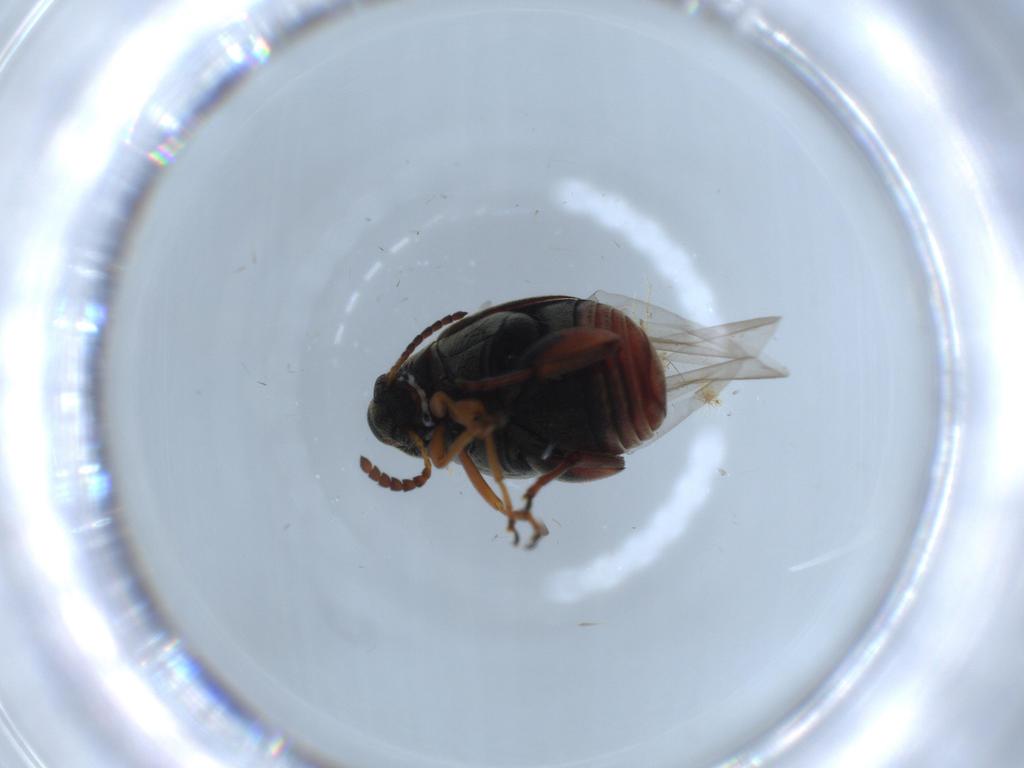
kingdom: Animalia
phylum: Arthropoda
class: Insecta
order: Coleoptera
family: Chrysomelidae
